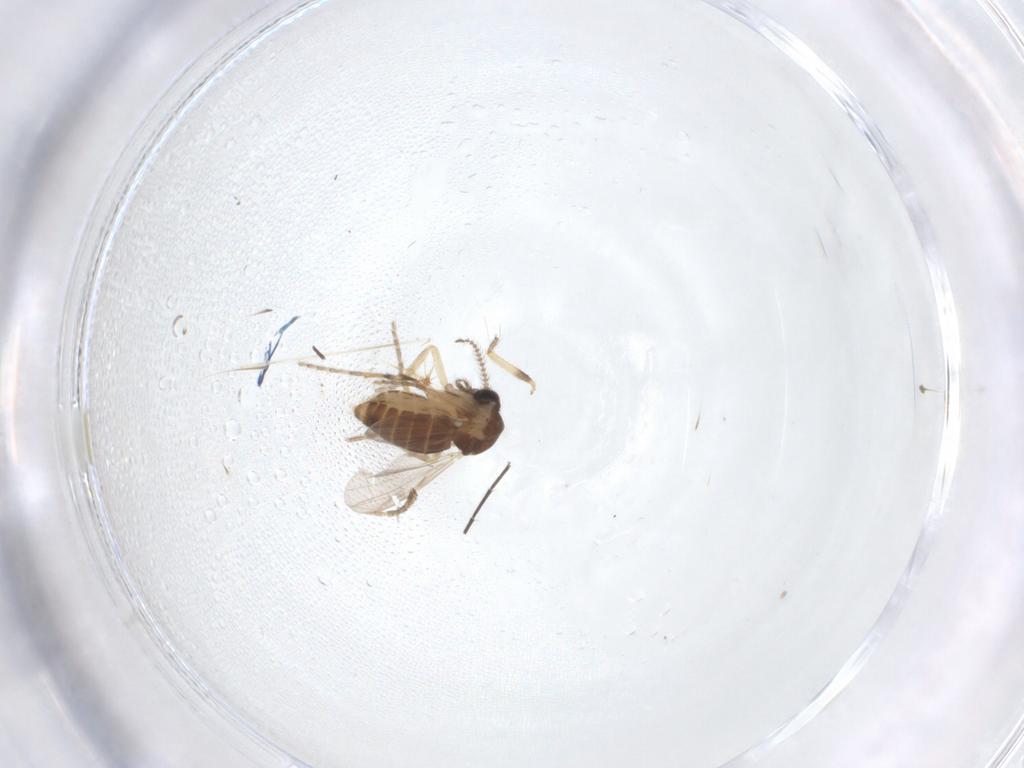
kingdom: Animalia
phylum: Arthropoda
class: Insecta
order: Diptera
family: Ceratopogonidae
